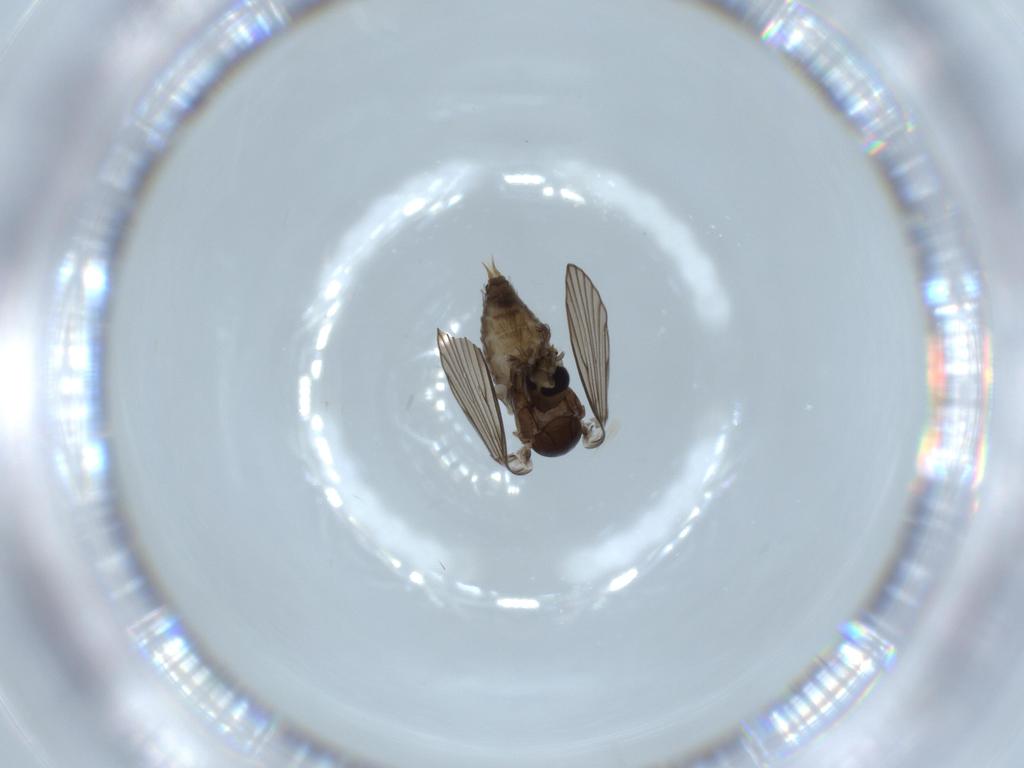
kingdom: Animalia
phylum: Arthropoda
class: Insecta
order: Diptera
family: Psychodidae
